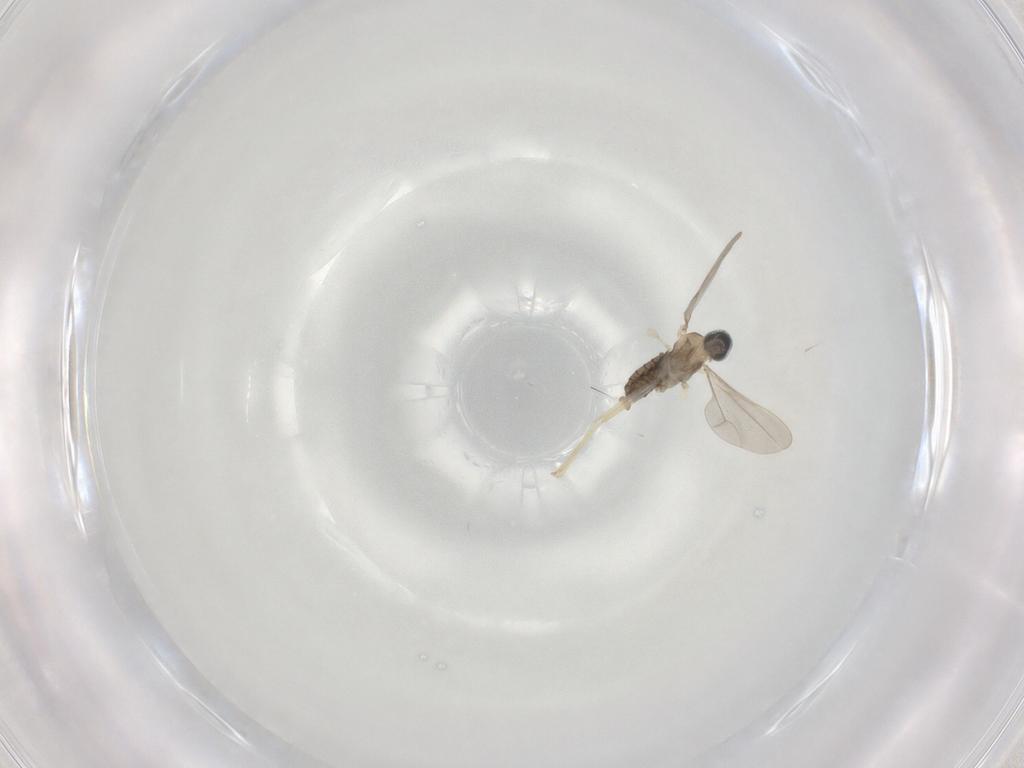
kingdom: Animalia
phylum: Arthropoda
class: Insecta
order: Diptera
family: Cecidomyiidae
